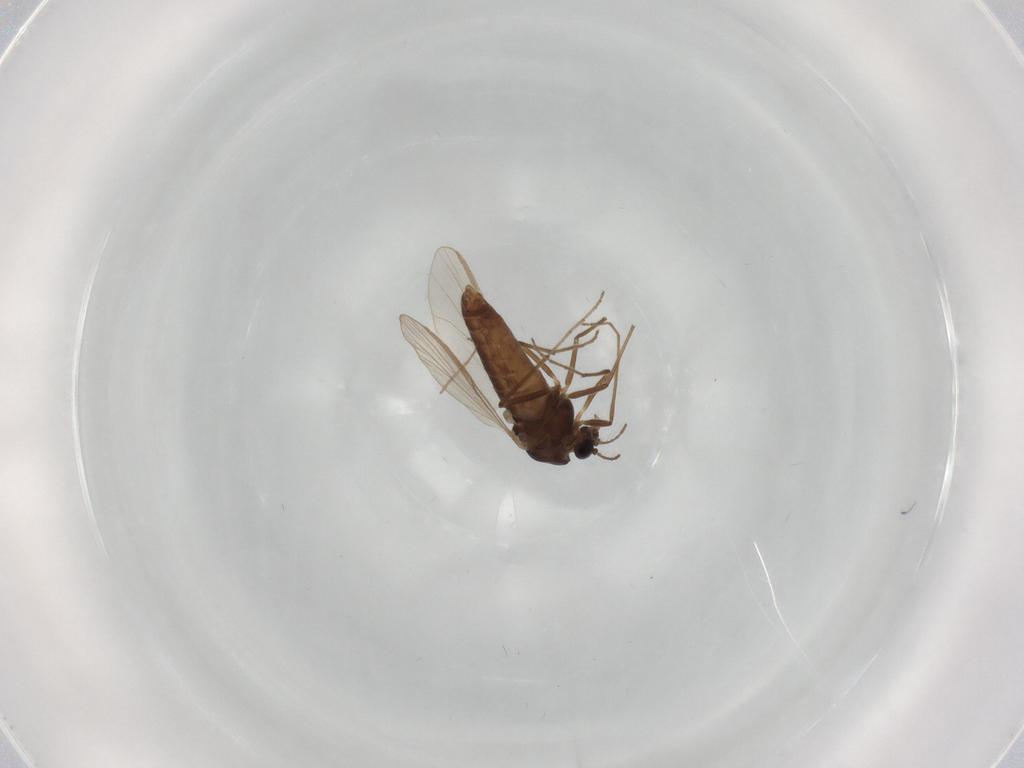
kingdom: Animalia
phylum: Arthropoda
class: Insecta
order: Diptera
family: Chironomidae
